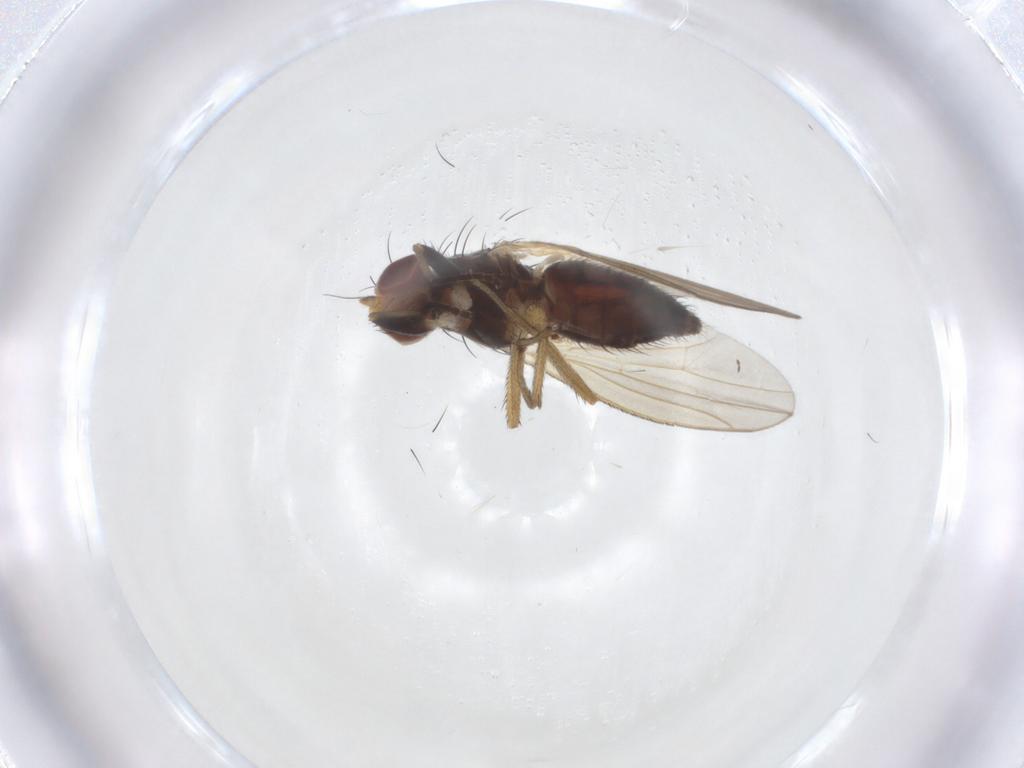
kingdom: Animalia
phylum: Arthropoda
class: Insecta
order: Diptera
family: Heleomyzidae
